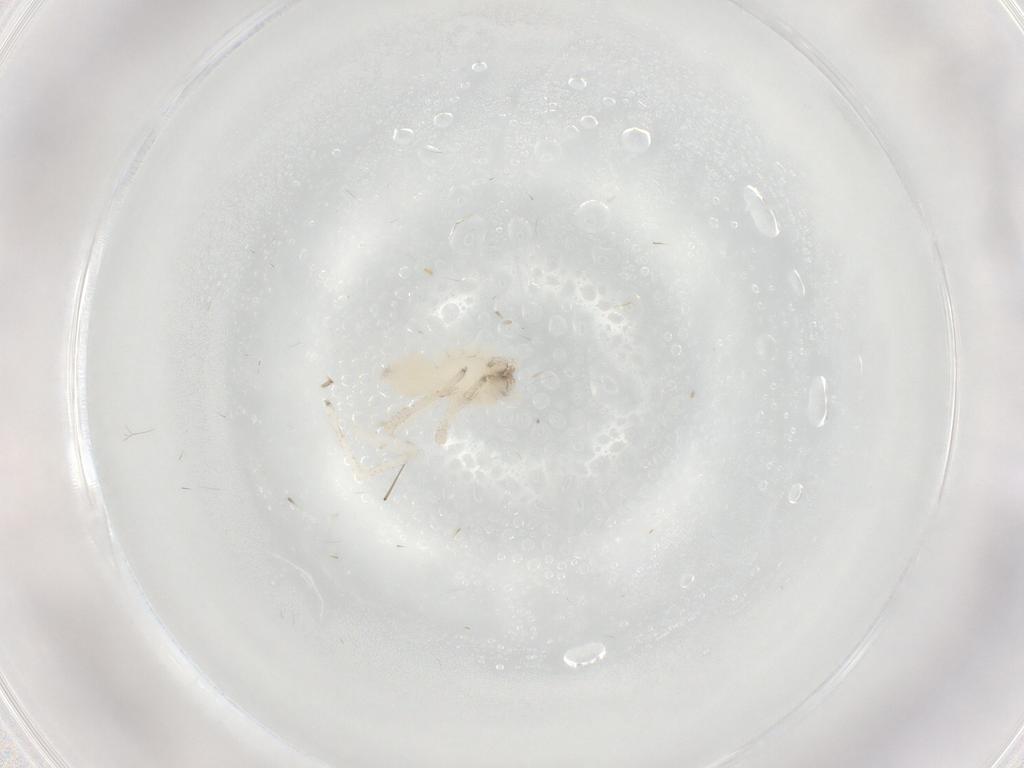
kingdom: Animalia
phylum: Arthropoda
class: Arachnida
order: Araneae
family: Anyphaenidae
